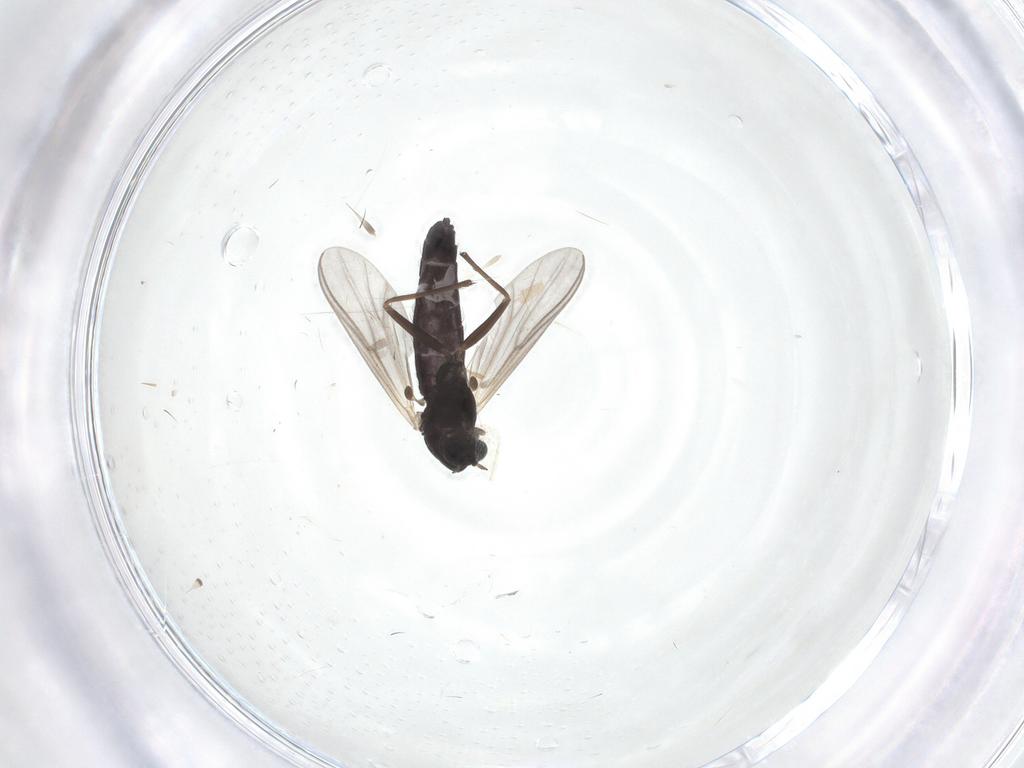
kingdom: Animalia
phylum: Arthropoda
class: Insecta
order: Diptera
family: Chironomidae
